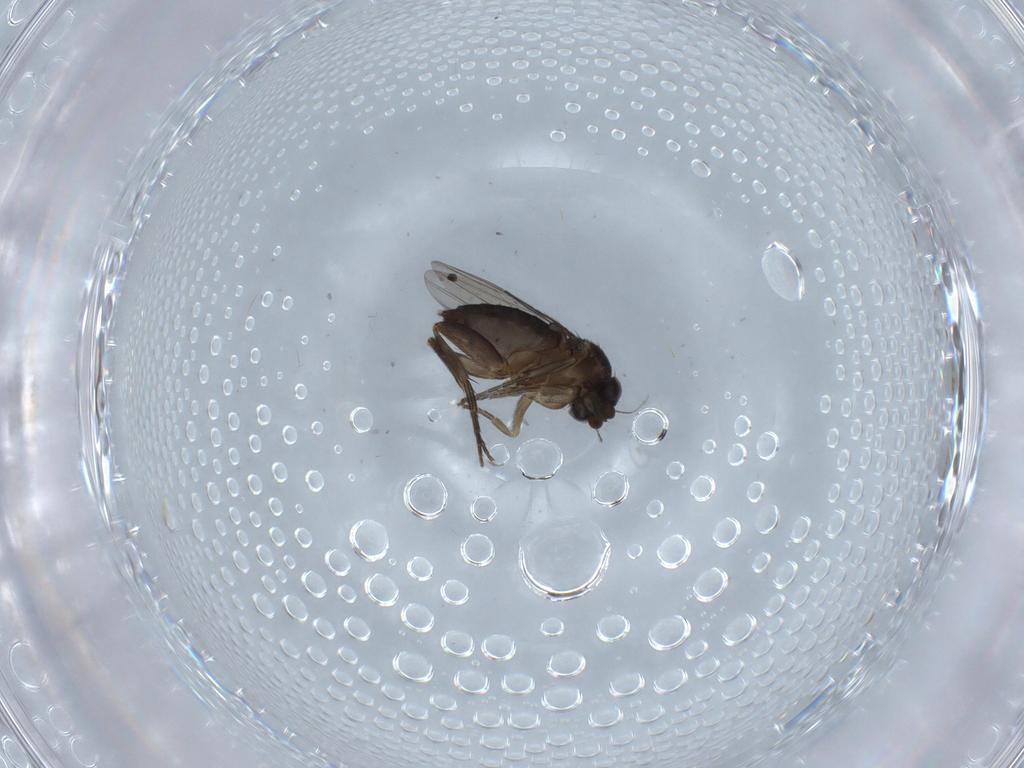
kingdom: Animalia
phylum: Arthropoda
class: Insecta
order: Diptera
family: Phoridae
